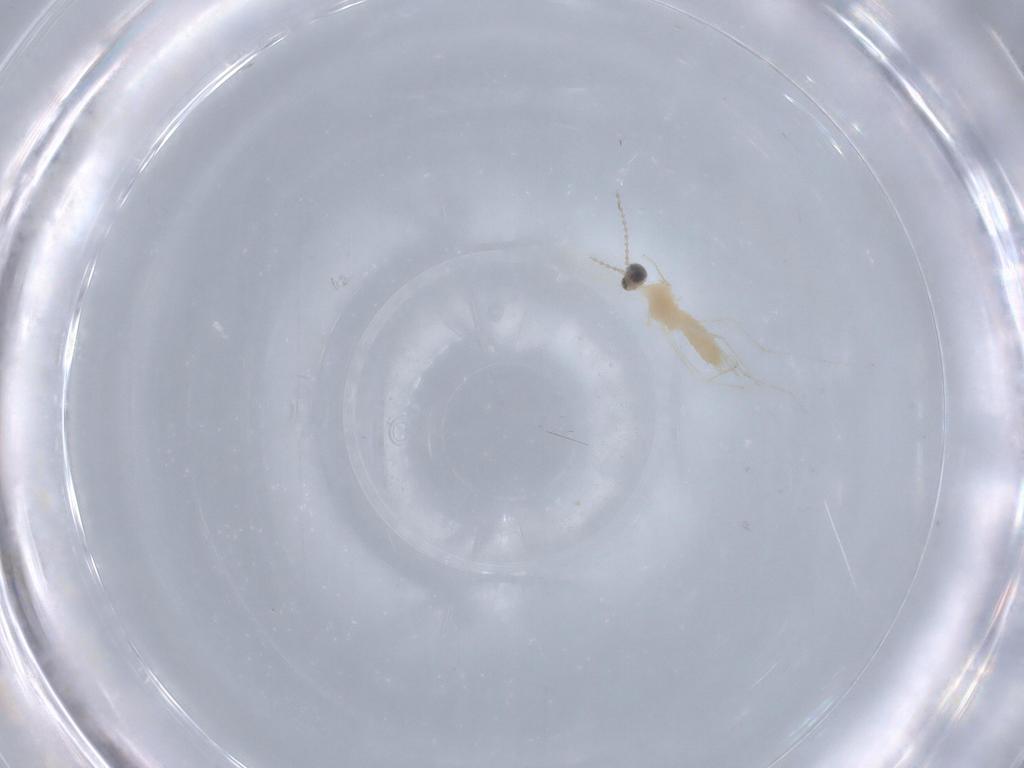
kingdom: Animalia
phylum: Arthropoda
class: Insecta
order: Diptera
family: Cecidomyiidae
